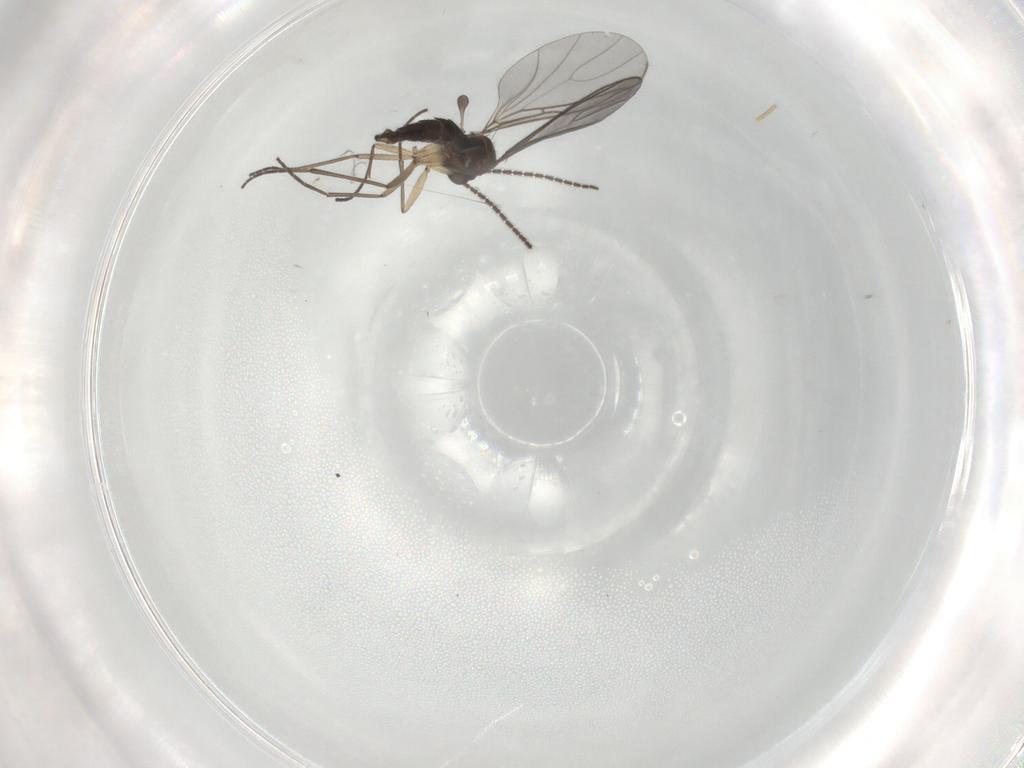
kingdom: Animalia
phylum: Arthropoda
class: Insecta
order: Diptera
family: Sciaridae
